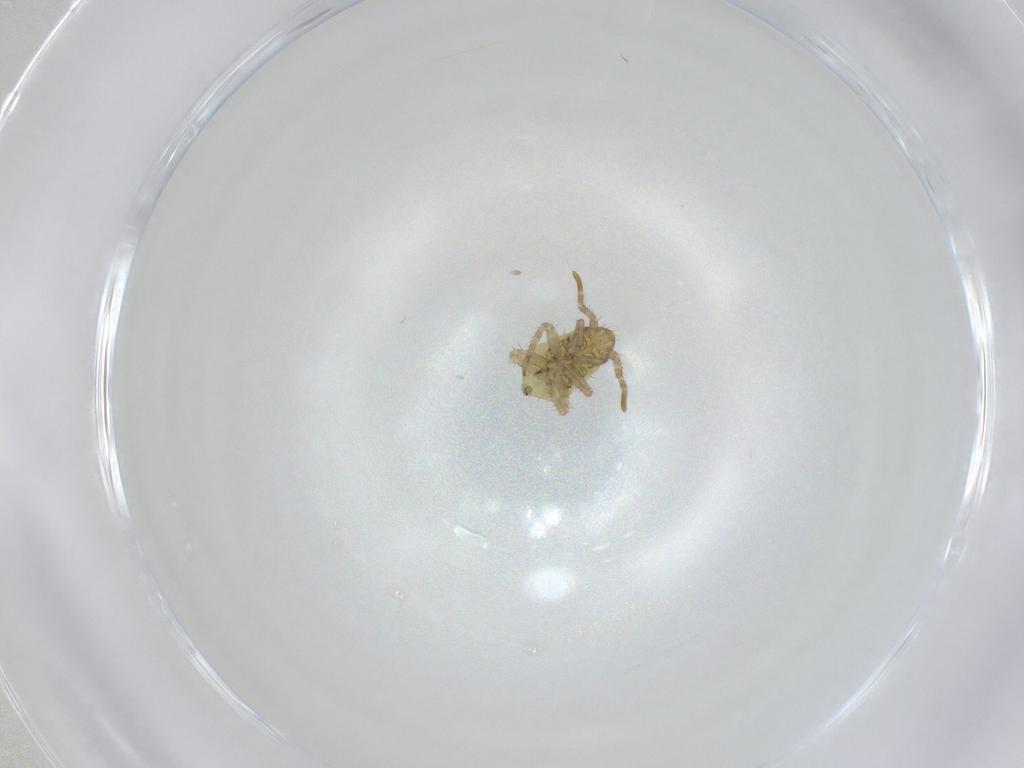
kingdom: Animalia
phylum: Arthropoda
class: Insecta
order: Hemiptera
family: Miridae
